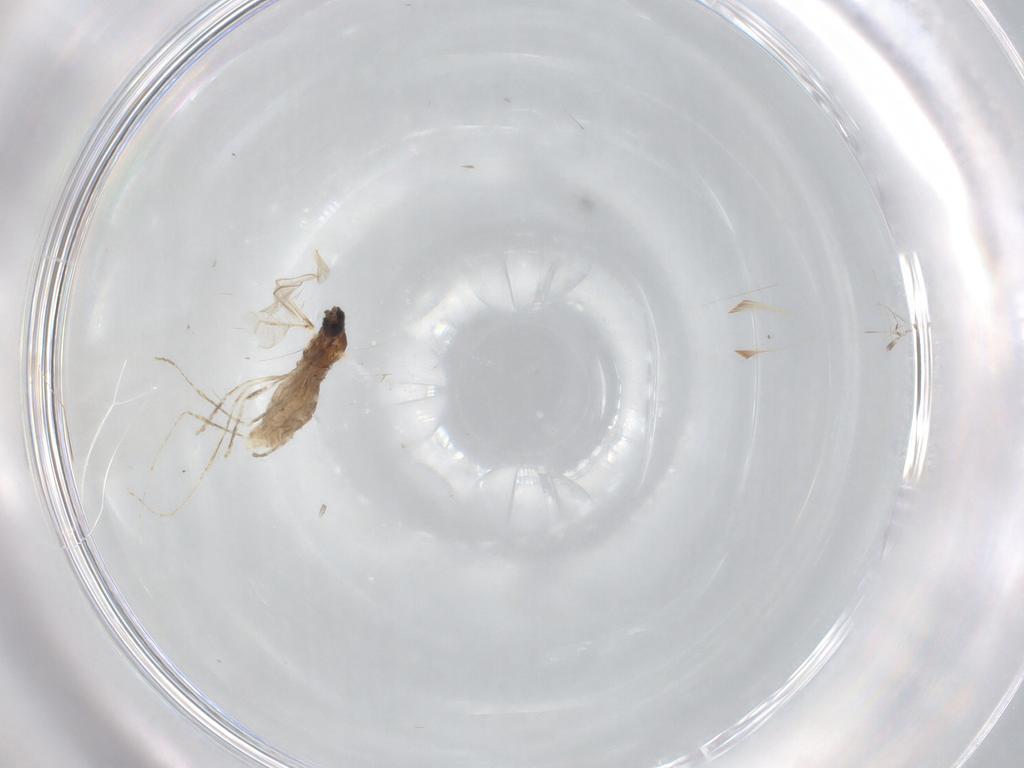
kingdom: Animalia
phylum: Arthropoda
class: Insecta
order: Diptera
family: Cecidomyiidae
